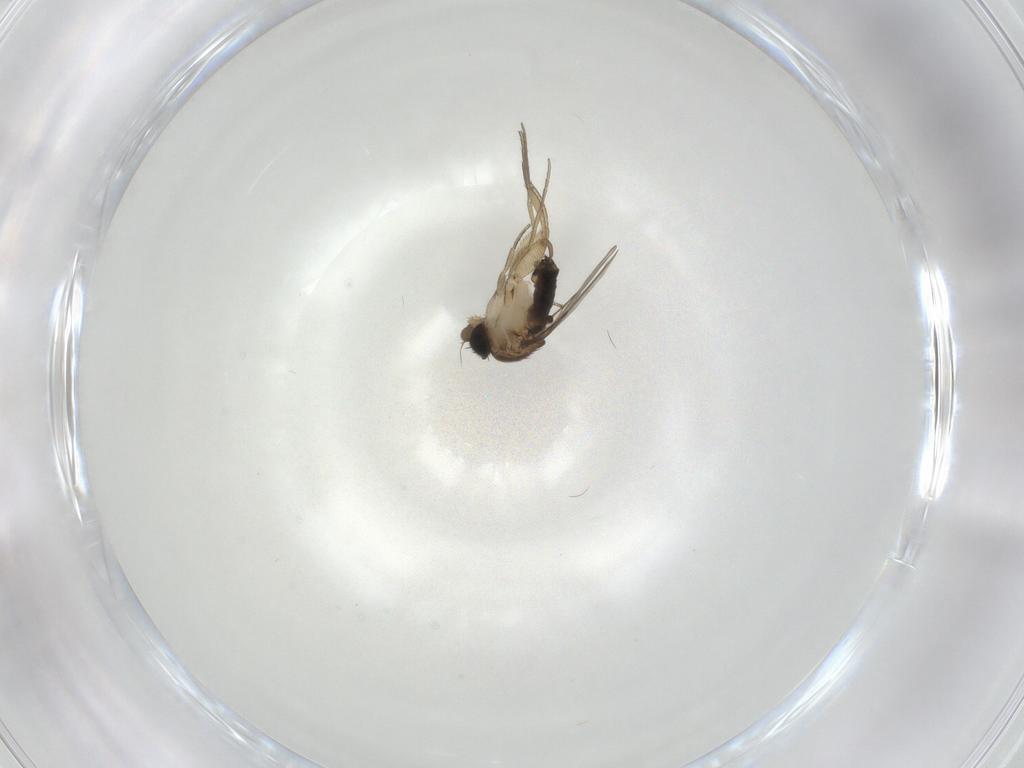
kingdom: Animalia
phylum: Arthropoda
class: Insecta
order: Diptera
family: Phoridae
